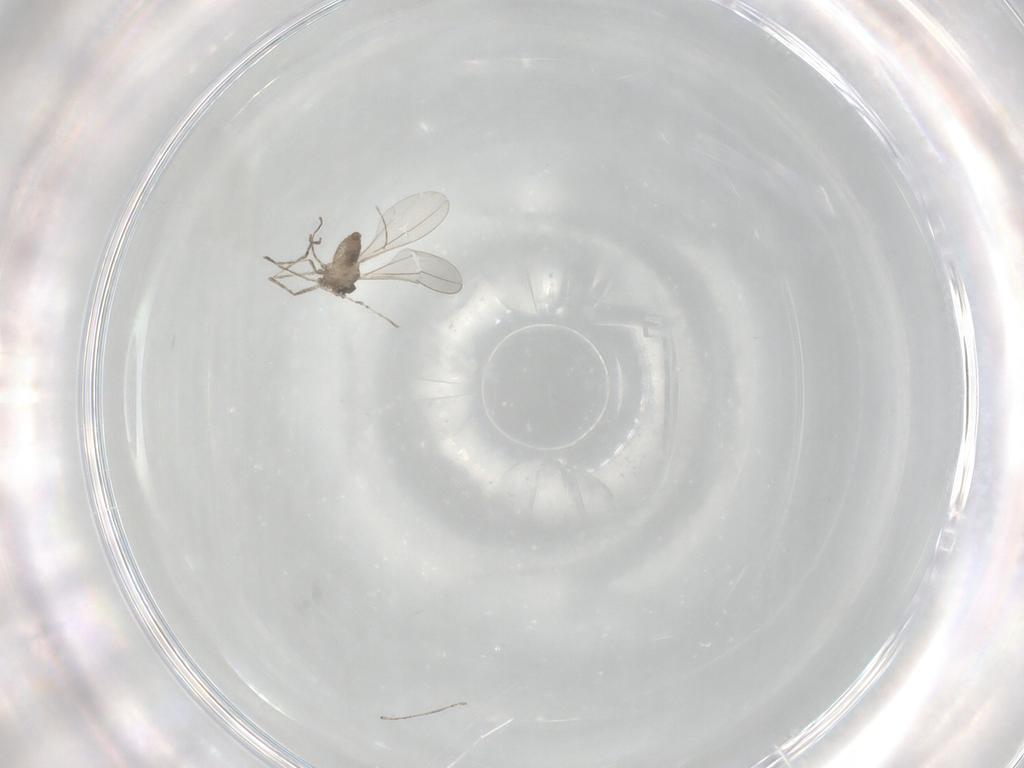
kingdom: Animalia
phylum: Arthropoda
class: Insecta
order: Diptera
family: Cecidomyiidae
